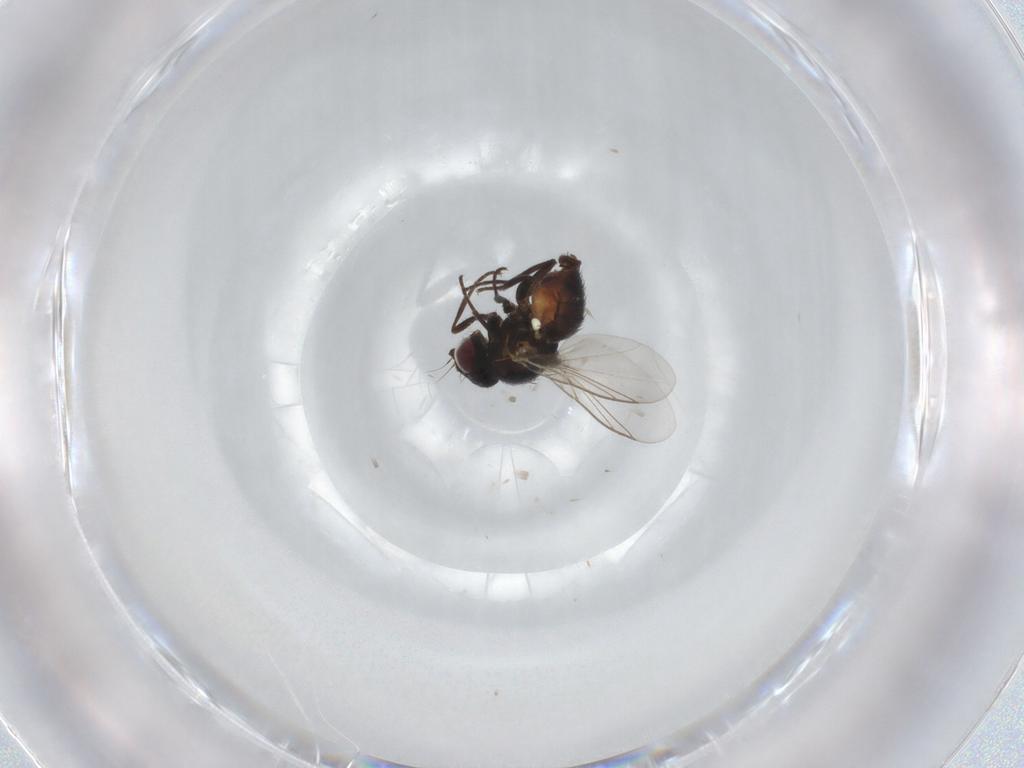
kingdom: Animalia
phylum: Arthropoda
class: Insecta
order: Diptera
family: Agromyzidae
